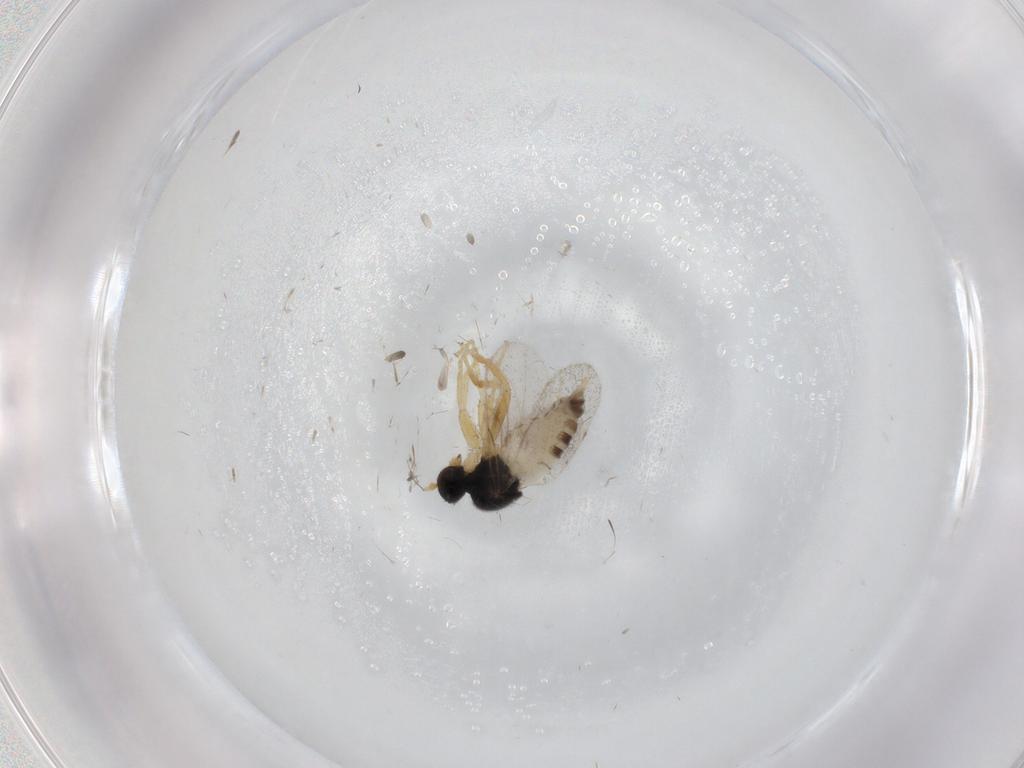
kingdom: Animalia
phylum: Arthropoda
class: Insecta
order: Diptera
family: Hybotidae
